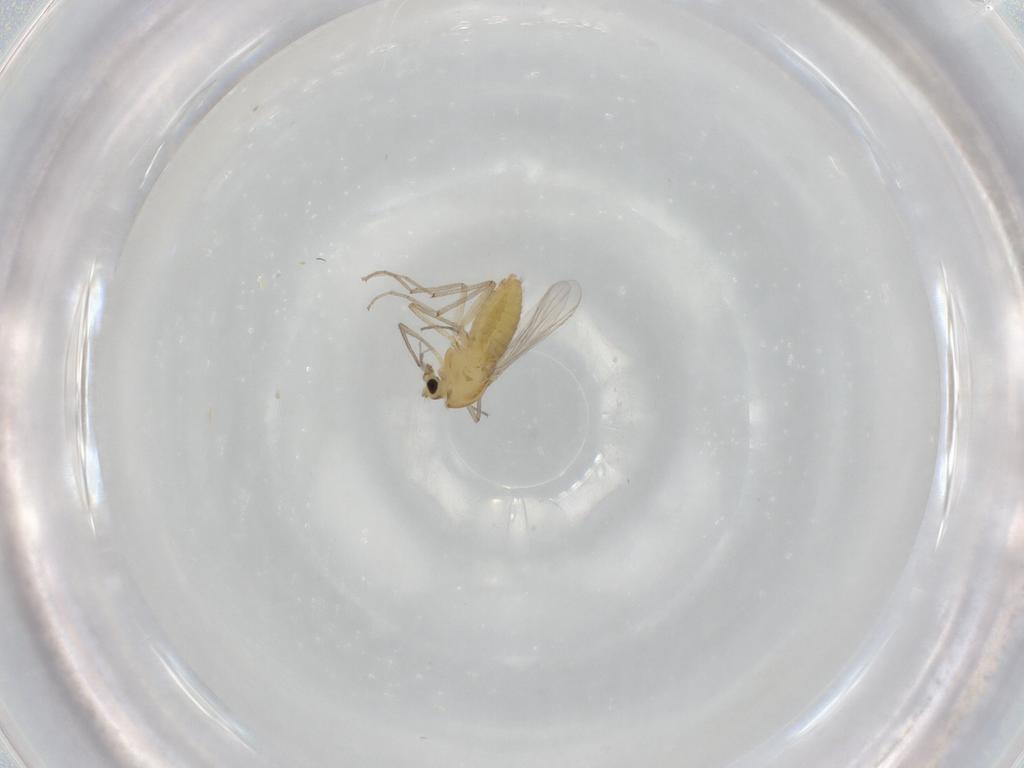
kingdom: Animalia
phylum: Arthropoda
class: Insecta
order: Diptera
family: Chironomidae
